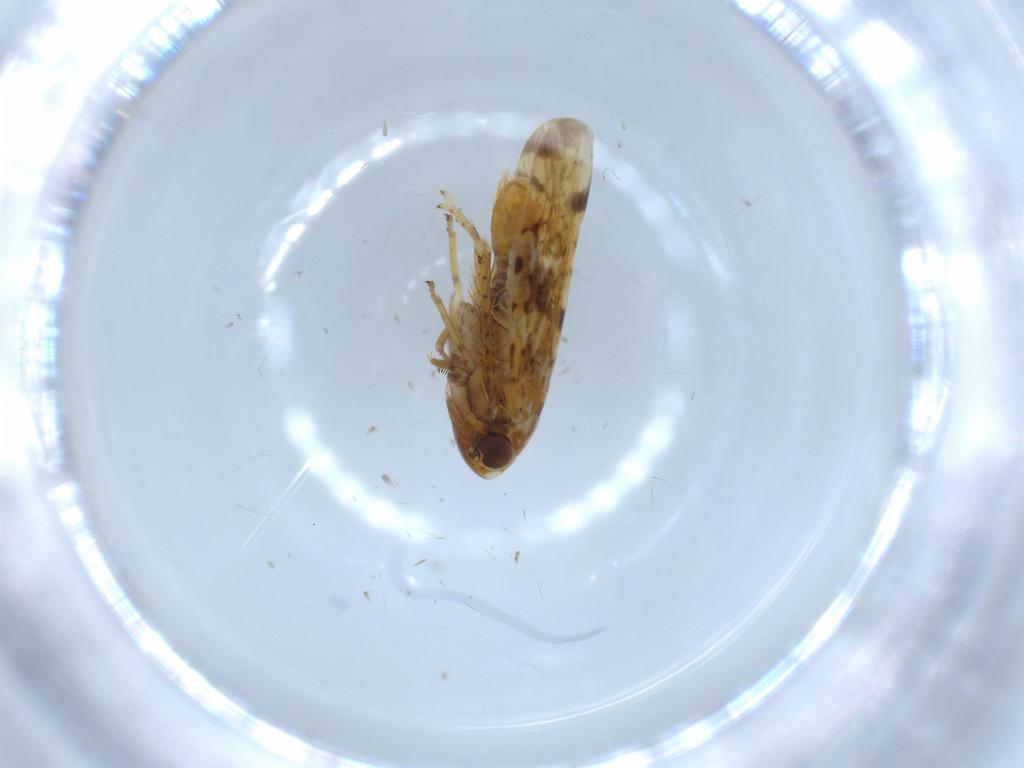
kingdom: Animalia
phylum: Arthropoda
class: Insecta
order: Hemiptera
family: Cicadellidae
